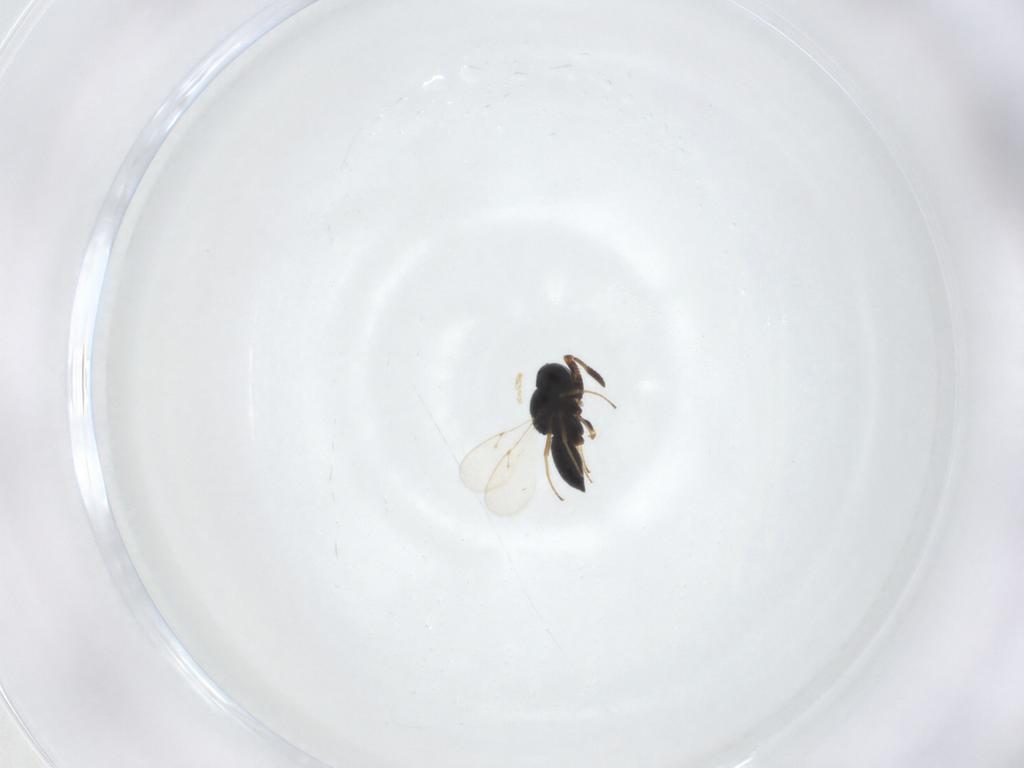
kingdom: Animalia
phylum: Arthropoda
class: Insecta
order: Hymenoptera
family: Scelionidae
